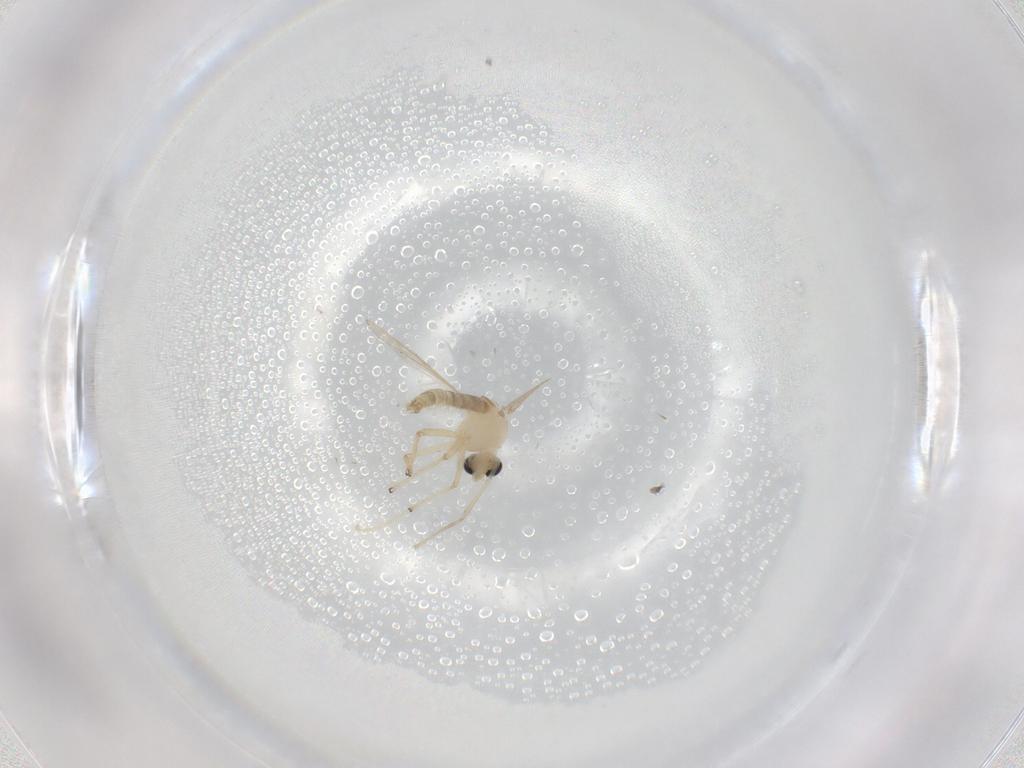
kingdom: Animalia
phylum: Arthropoda
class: Insecta
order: Diptera
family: Chironomidae
